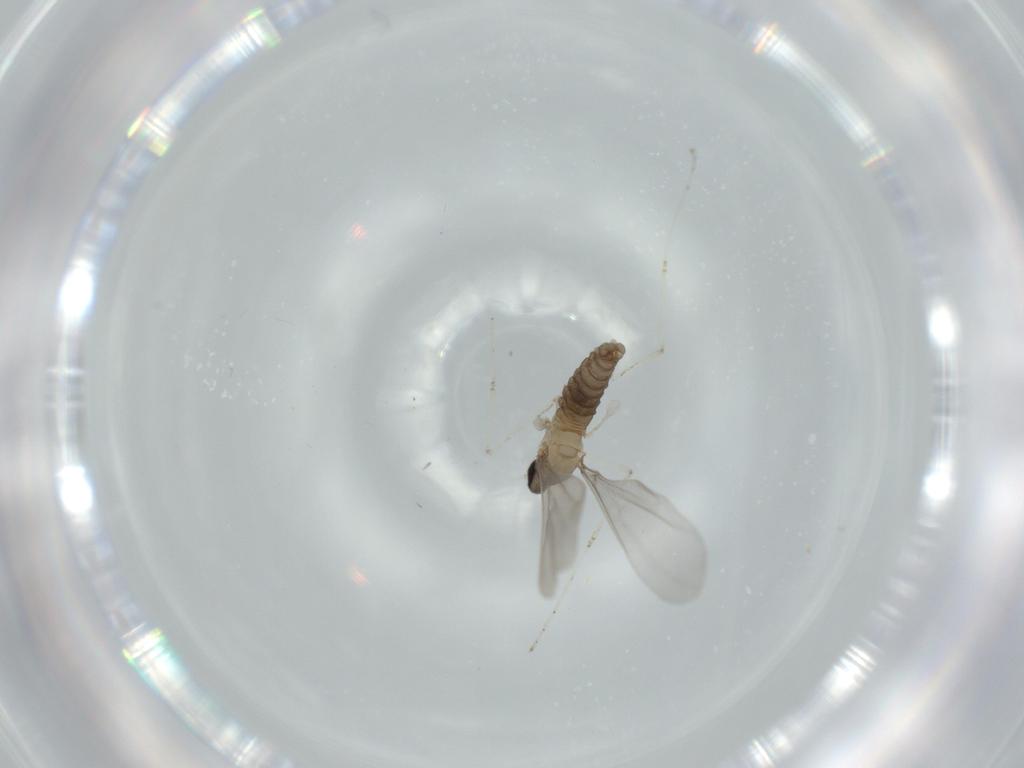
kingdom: Animalia
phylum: Arthropoda
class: Insecta
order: Diptera
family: Cecidomyiidae
